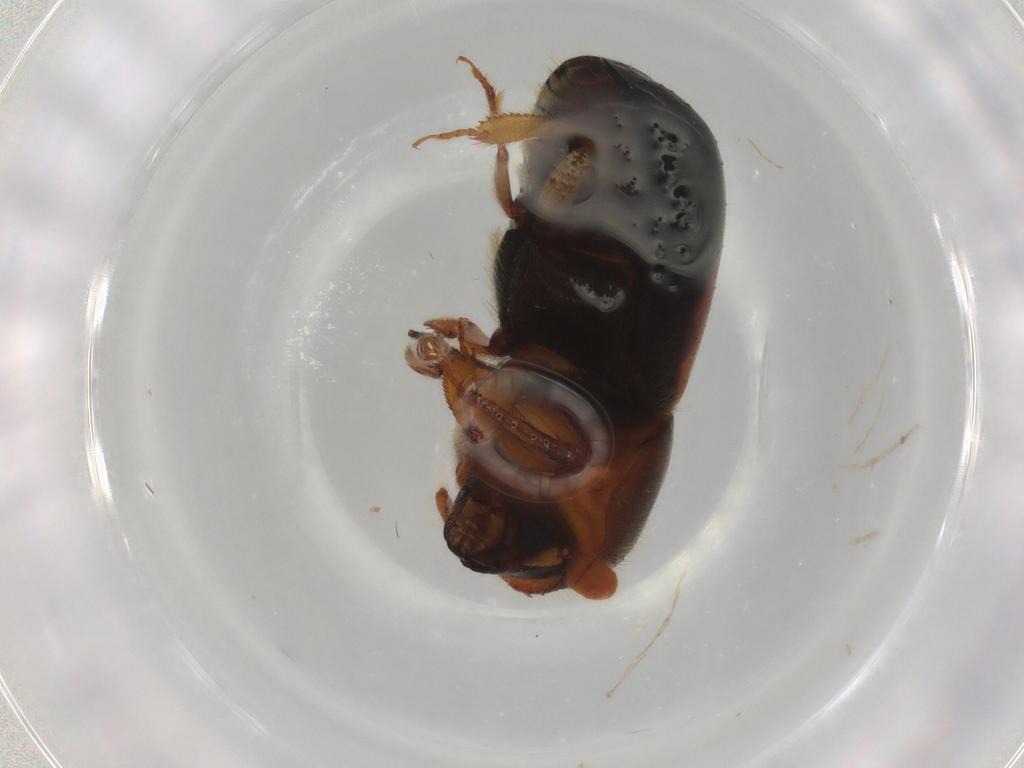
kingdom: Animalia
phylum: Arthropoda
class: Insecta
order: Coleoptera
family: Curculionidae
